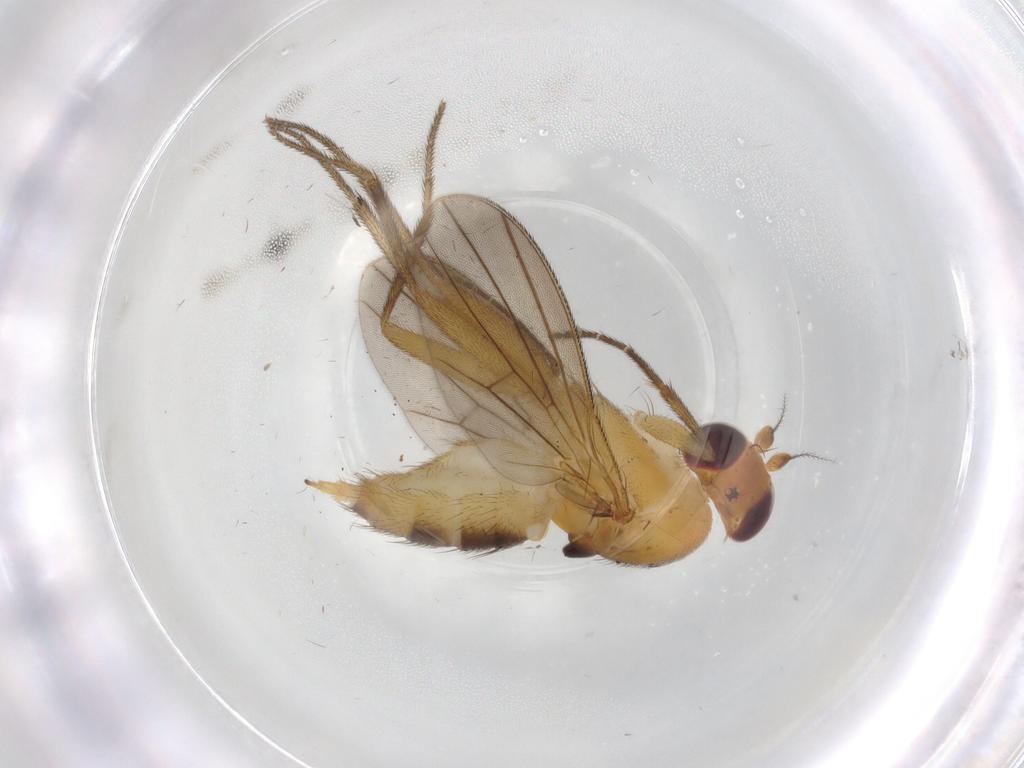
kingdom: Animalia
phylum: Arthropoda
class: Insecta
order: Diptera
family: Clusiidae
